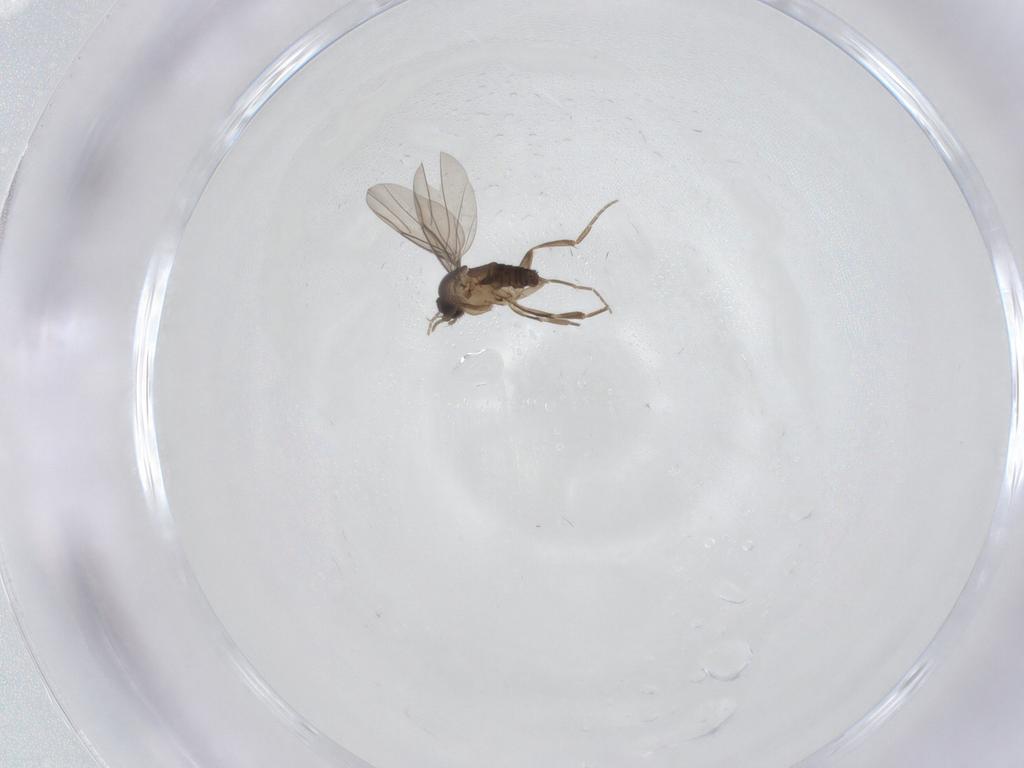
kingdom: Animalia
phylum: Arthropoda
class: Insecta
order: Diptera
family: Phoridae
